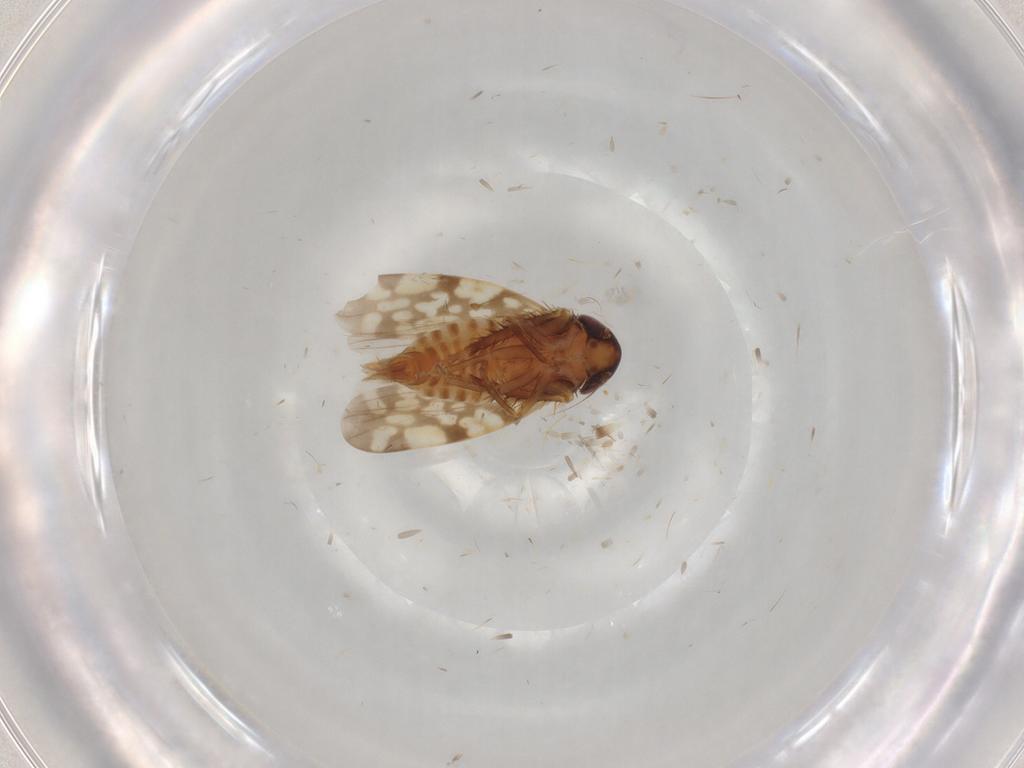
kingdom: Animalia
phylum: Arthropoda
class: Insecta
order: Hemiptera
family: Cicadellidae
